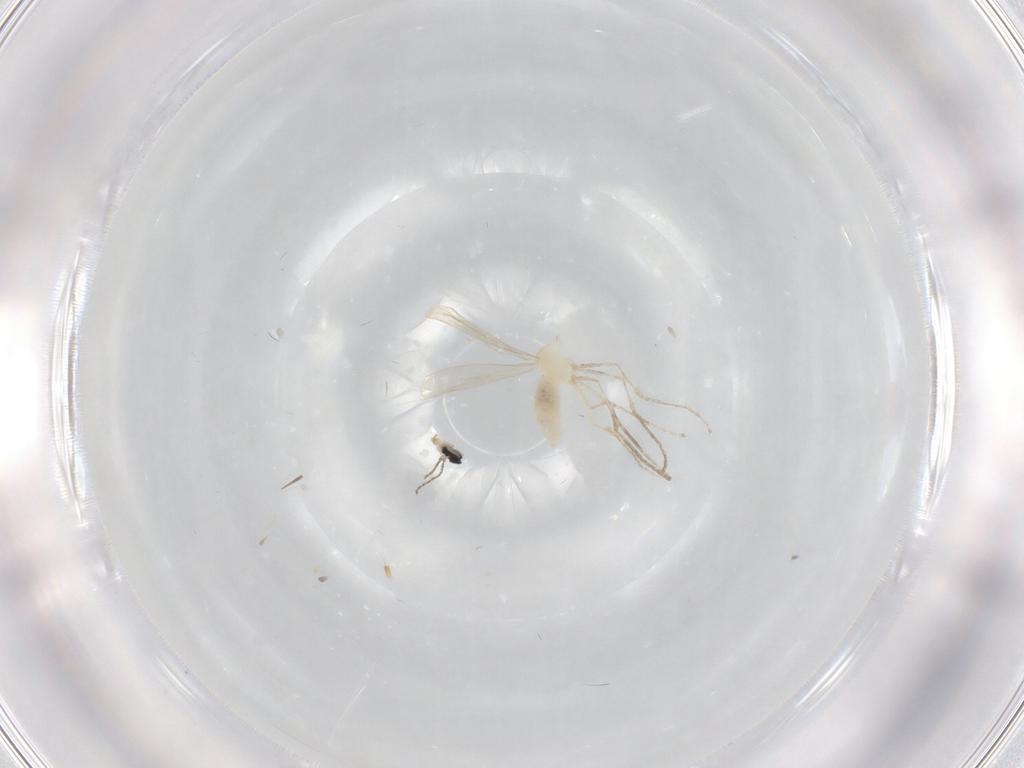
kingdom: Animalia
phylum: Arthropoda
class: Insecta
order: Diptera
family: Cecidomyiidae
